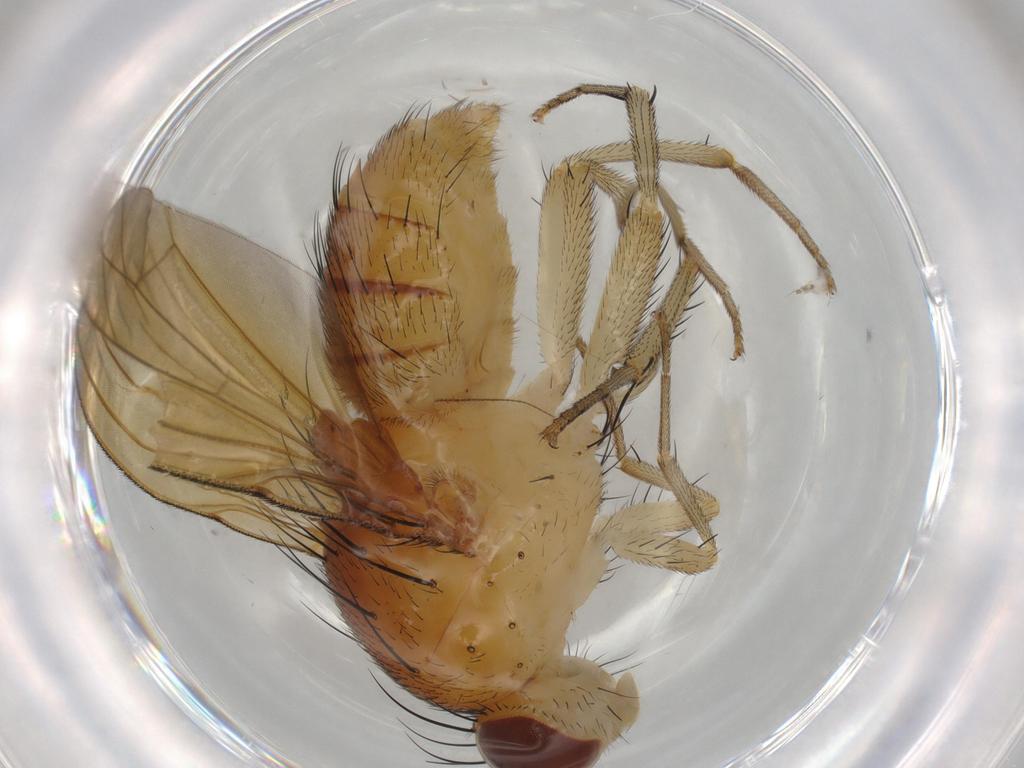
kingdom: Animalia
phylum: Arthropoda
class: Insecta
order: Diptera
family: Cecidomyiidae
